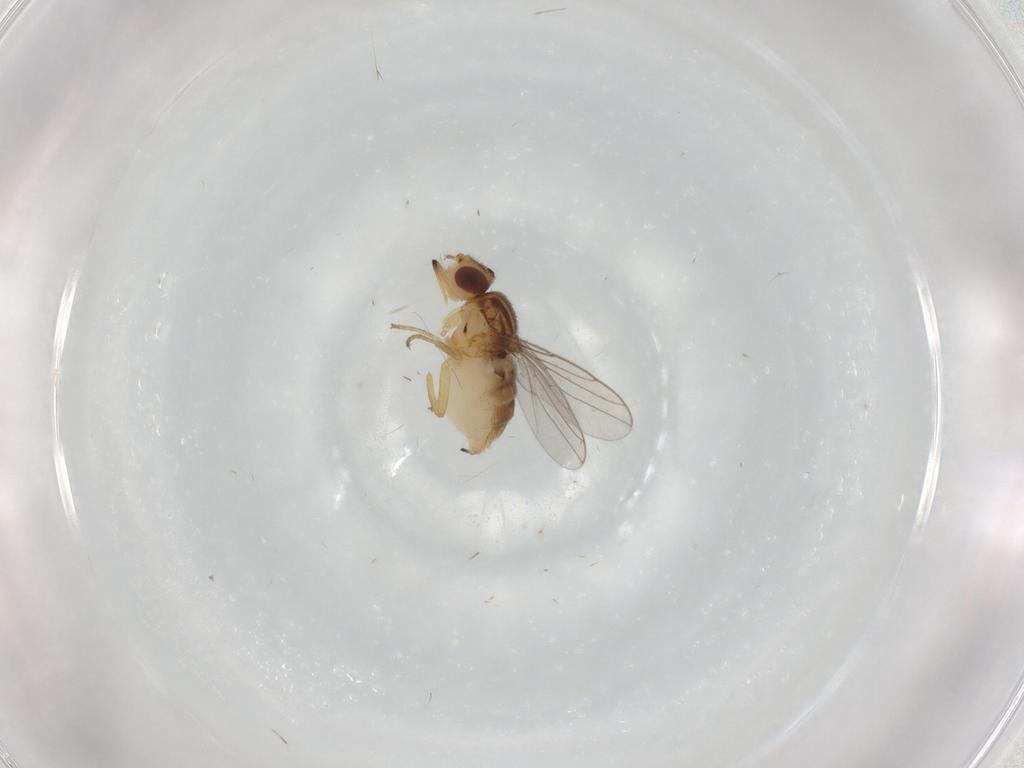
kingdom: Animalia
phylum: Arthropoda
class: Insecta
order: Diptera
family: Chloropidae
